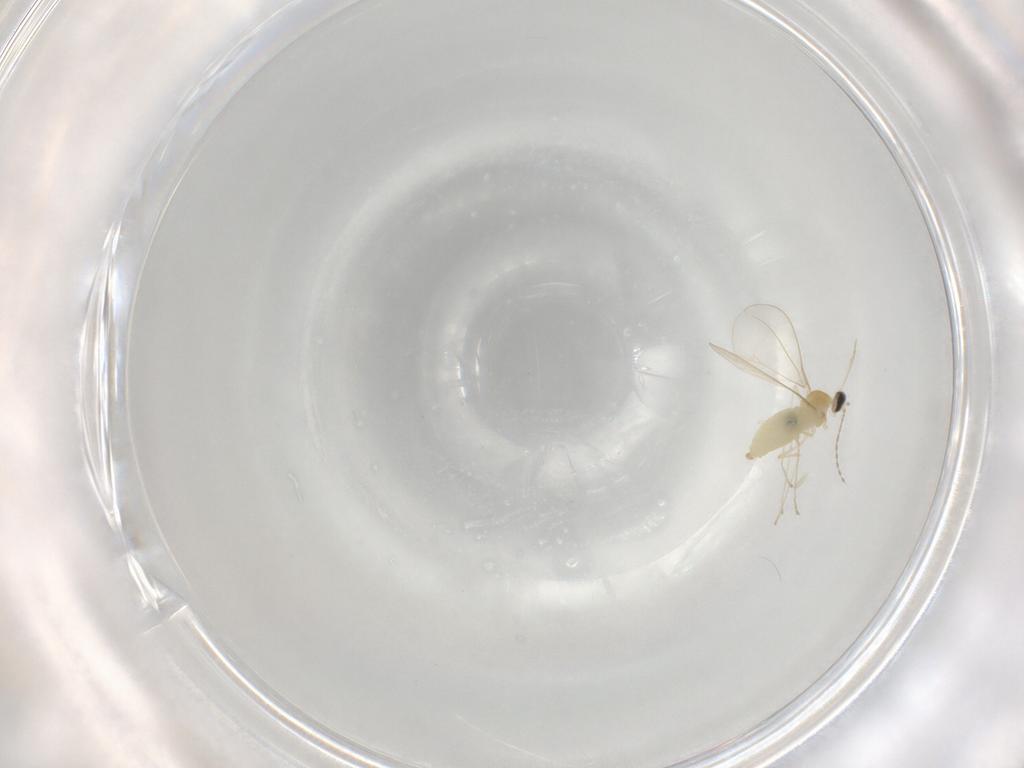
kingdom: Animalia
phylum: Arthropoda
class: Insecta
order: Diptera
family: Cecidomyiidae
